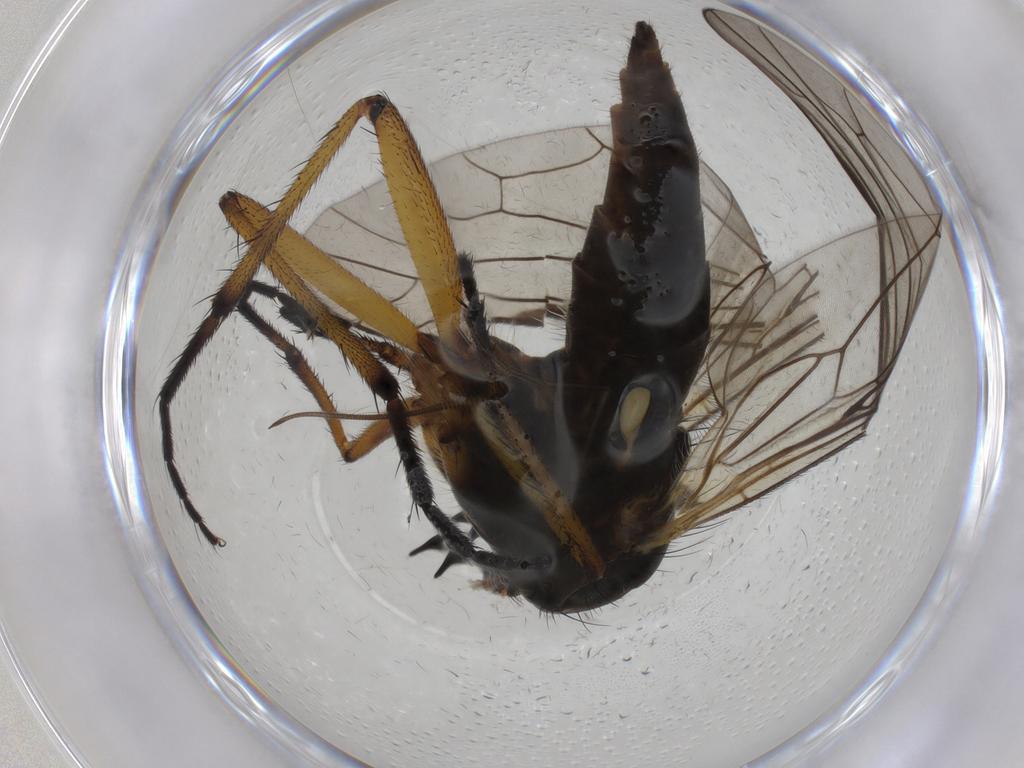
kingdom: Animalia
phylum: Arthropoda
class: Insecta
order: Diptera
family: Empididae
